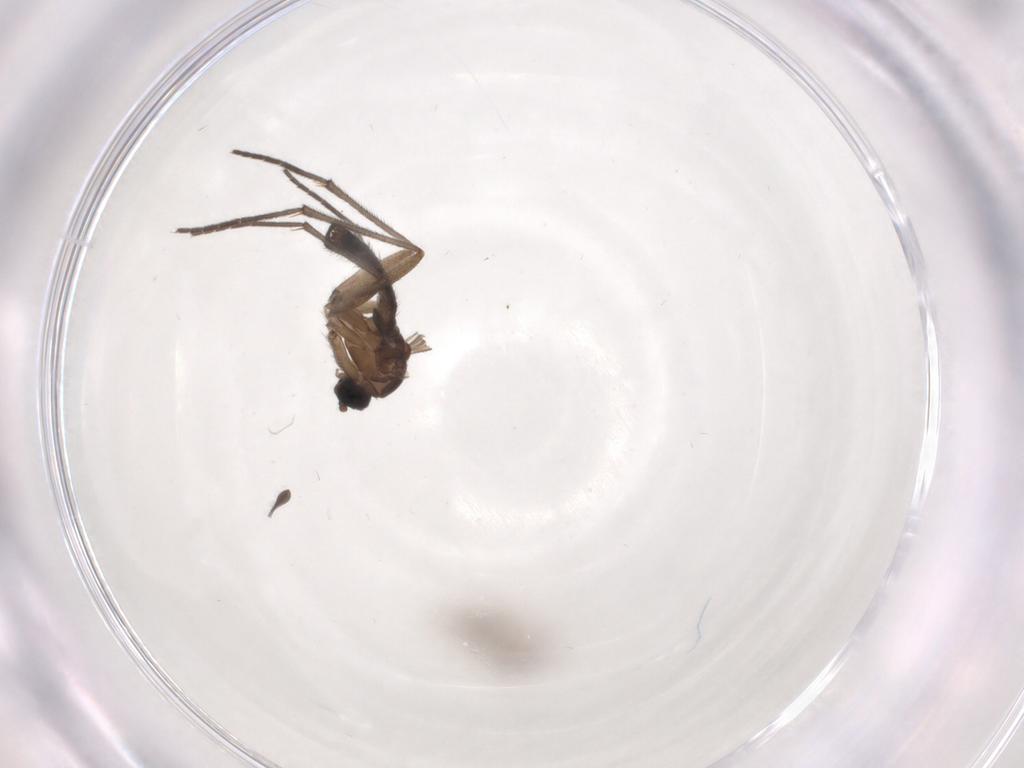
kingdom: Animalia
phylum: Arthropoda
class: Insecta
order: Diptera
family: Sciaridae
